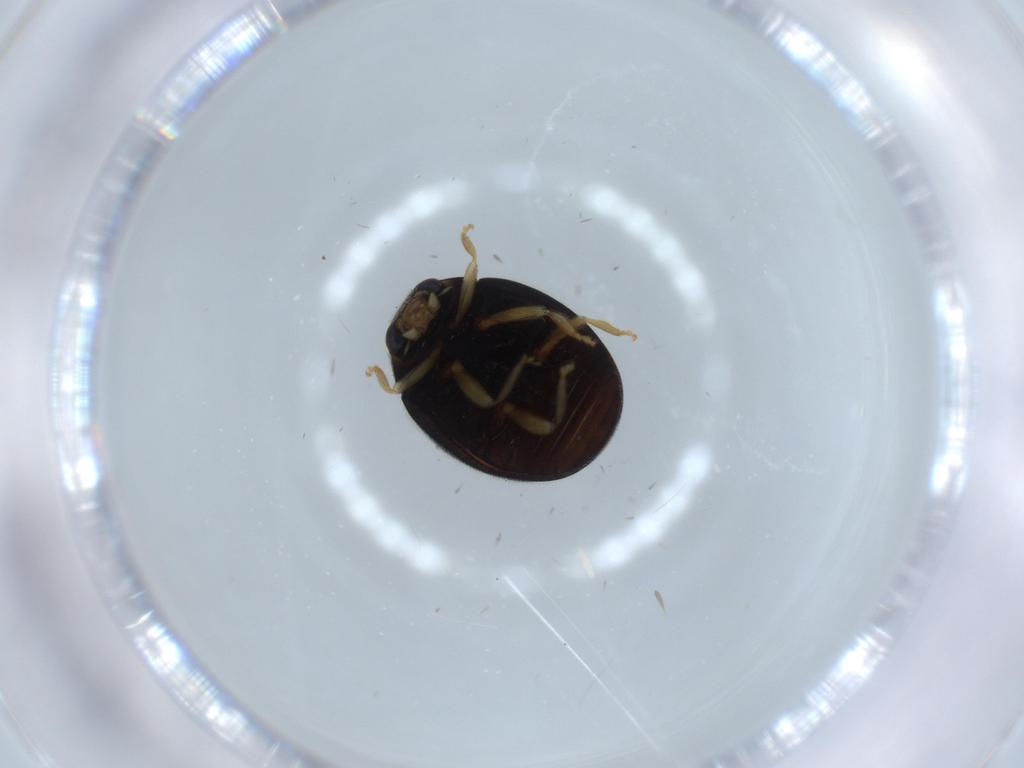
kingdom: Animalia
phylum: Arthropoda
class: Insecta
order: Coleoptera
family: Coccinellidae
